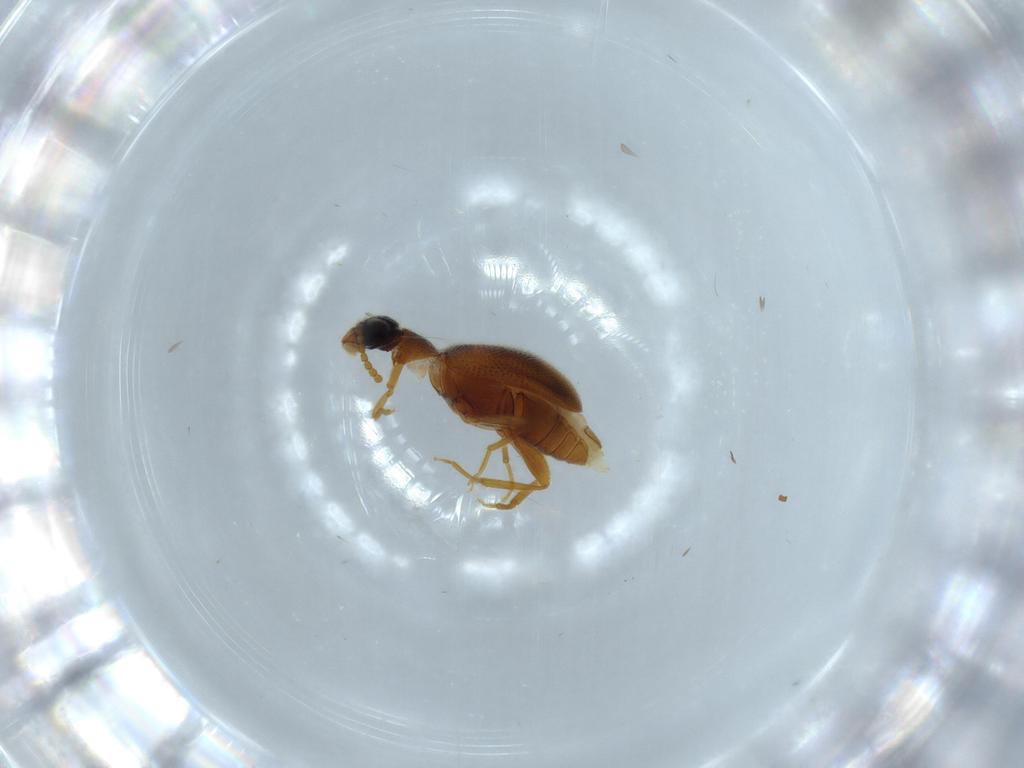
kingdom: Animalia
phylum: Arthropoda
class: Insecta
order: Coleoptera
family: Aderidae
